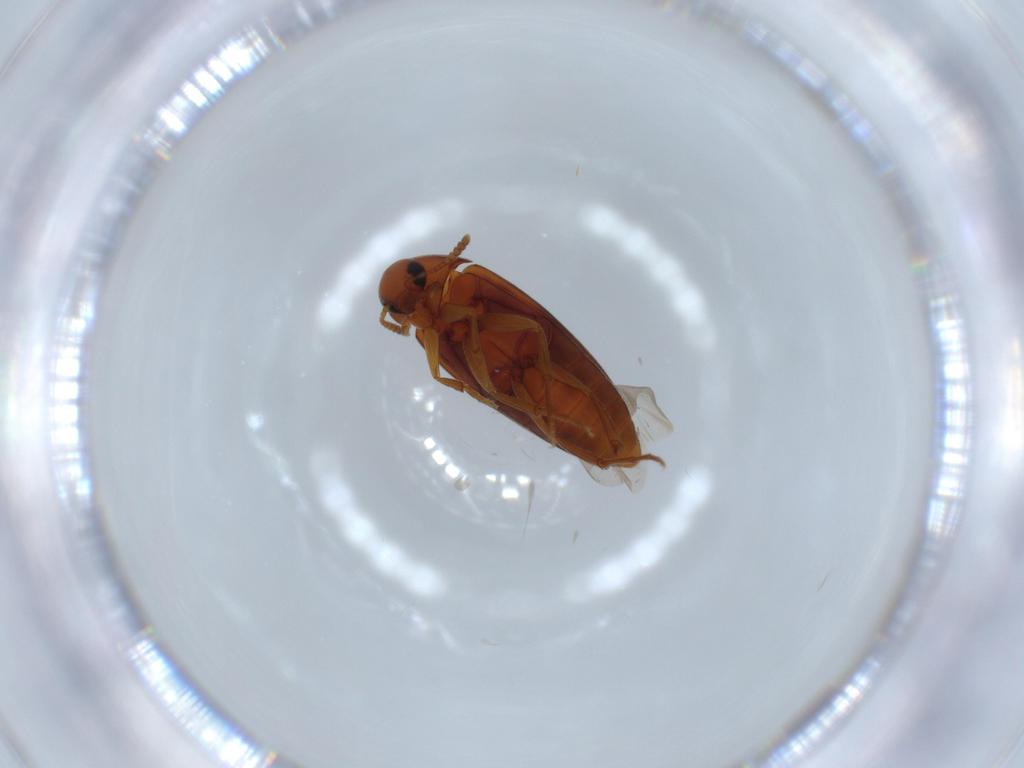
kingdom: Animalia
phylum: Arthropoda
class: Insecta
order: Coleoptera
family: Scraptiidae
